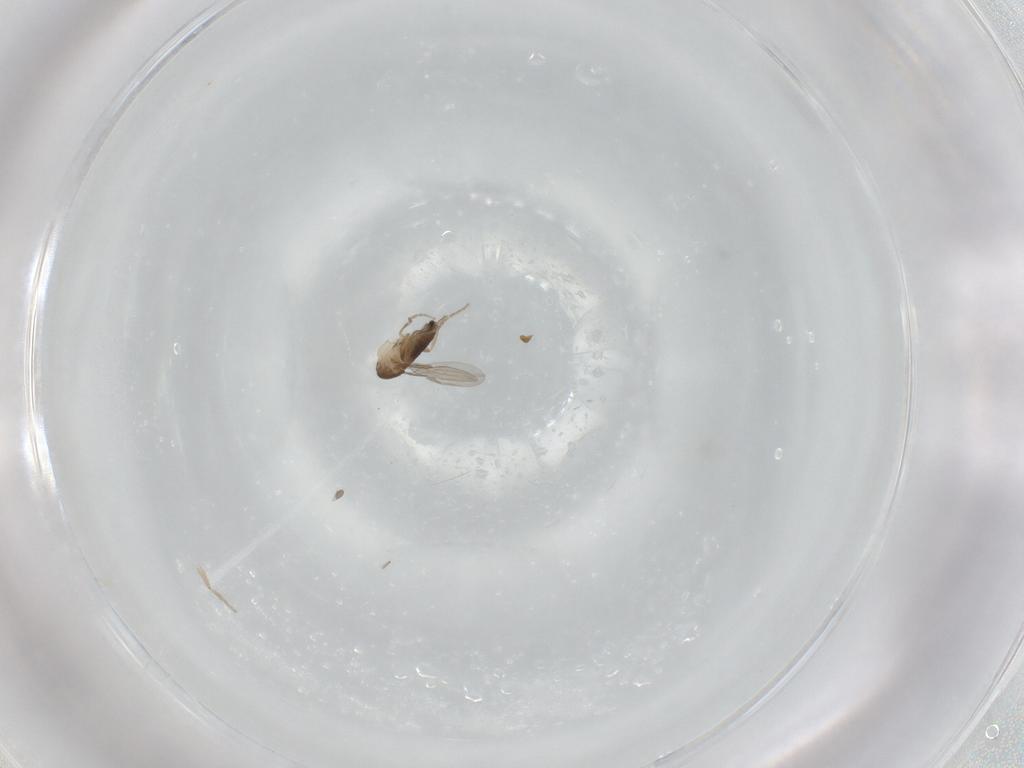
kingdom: Animalia
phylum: Arthropoda
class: Insecta
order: Diptera
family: Phoridae
